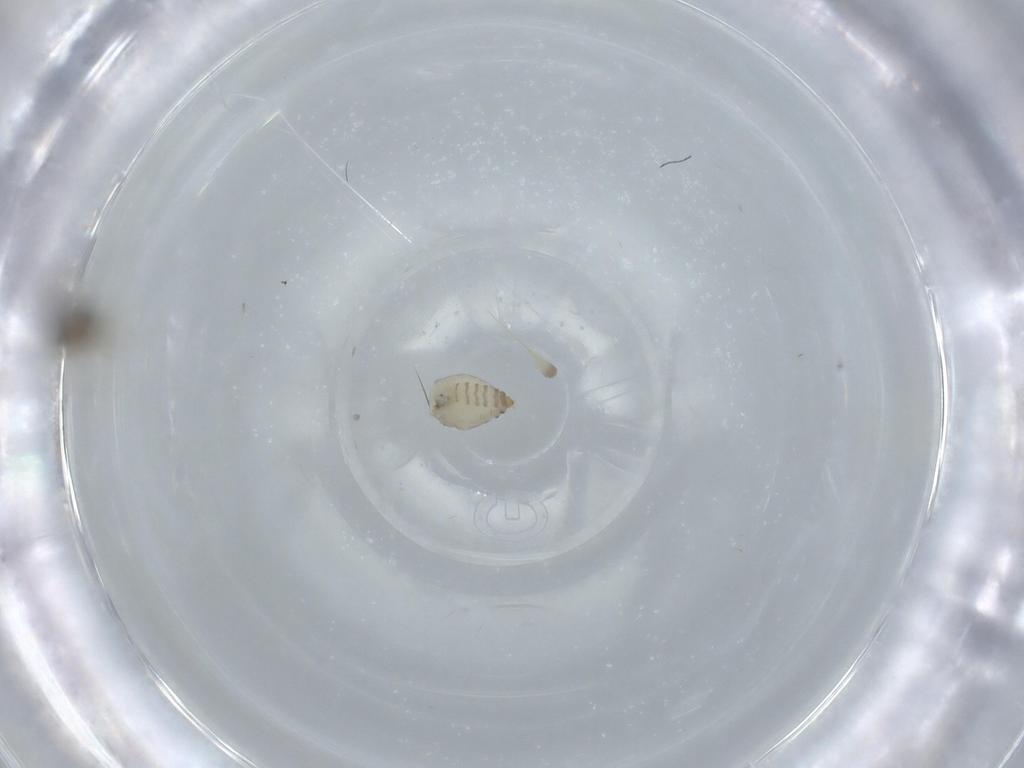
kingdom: Animalia
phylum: Arthropoda
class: Insecta
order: Diptera
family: Cecidomyiidae
